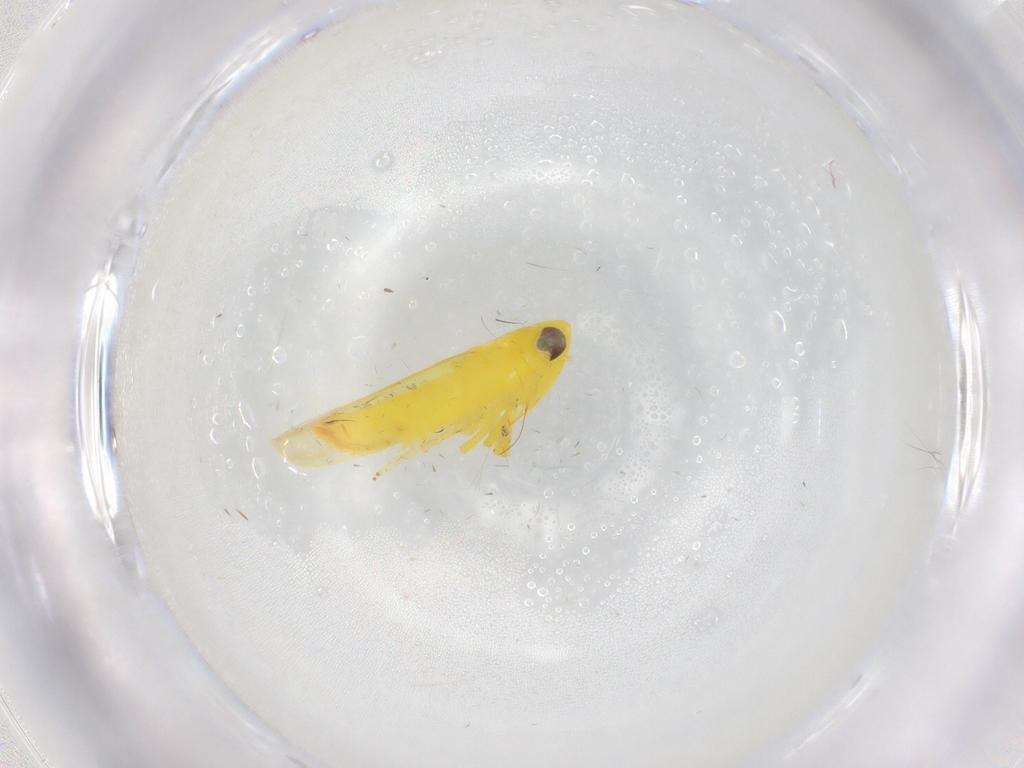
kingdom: Animalia
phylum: Arthropoda
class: Insecta
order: Hemiptera
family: Cicadellidae
